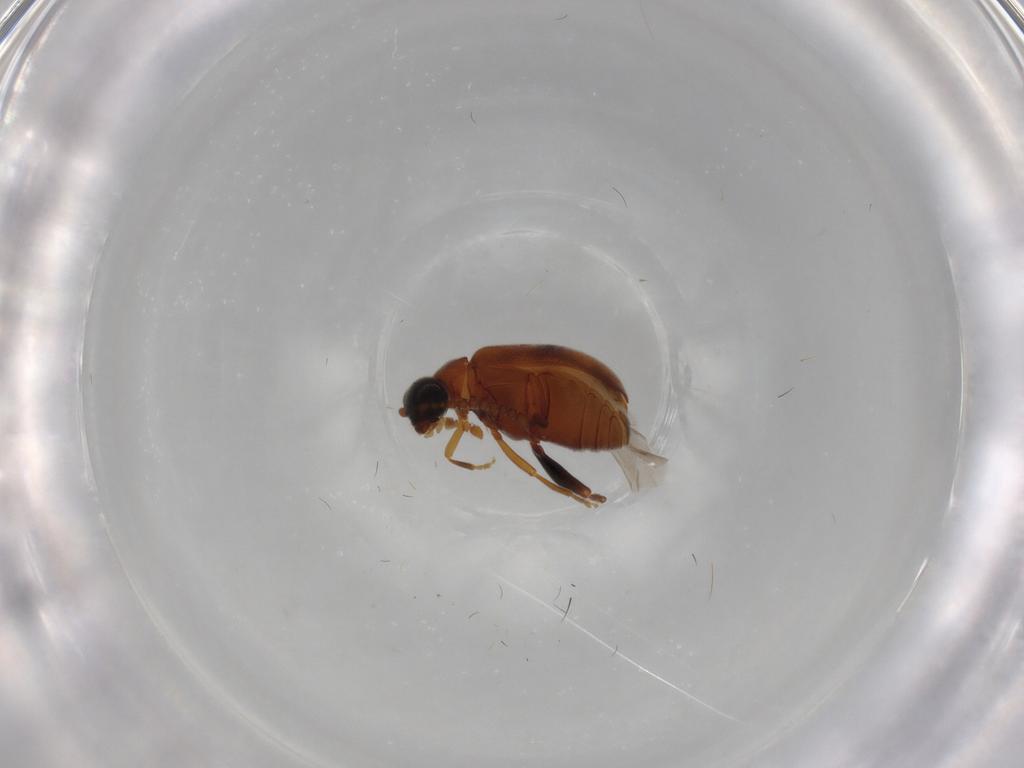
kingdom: Animalia
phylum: Arthropoda
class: Insecta
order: Coleoptera
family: Aderidae
